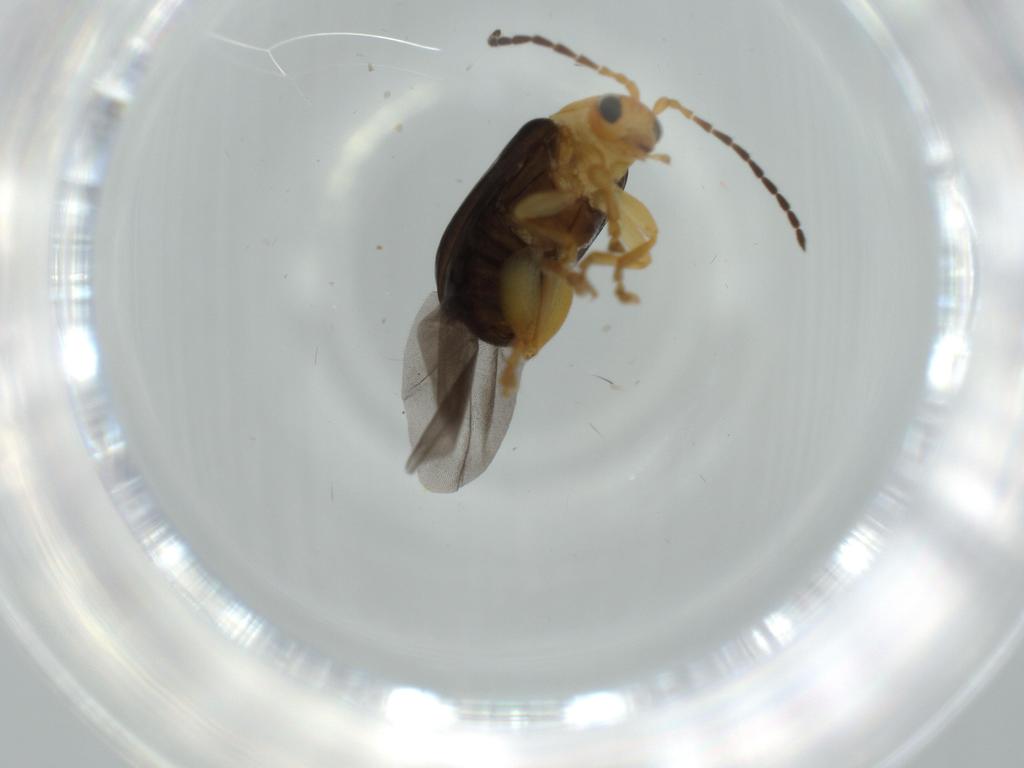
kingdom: Animalia
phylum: Arthropoda
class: Insecta
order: Coleoptera
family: Chrysomelidae
